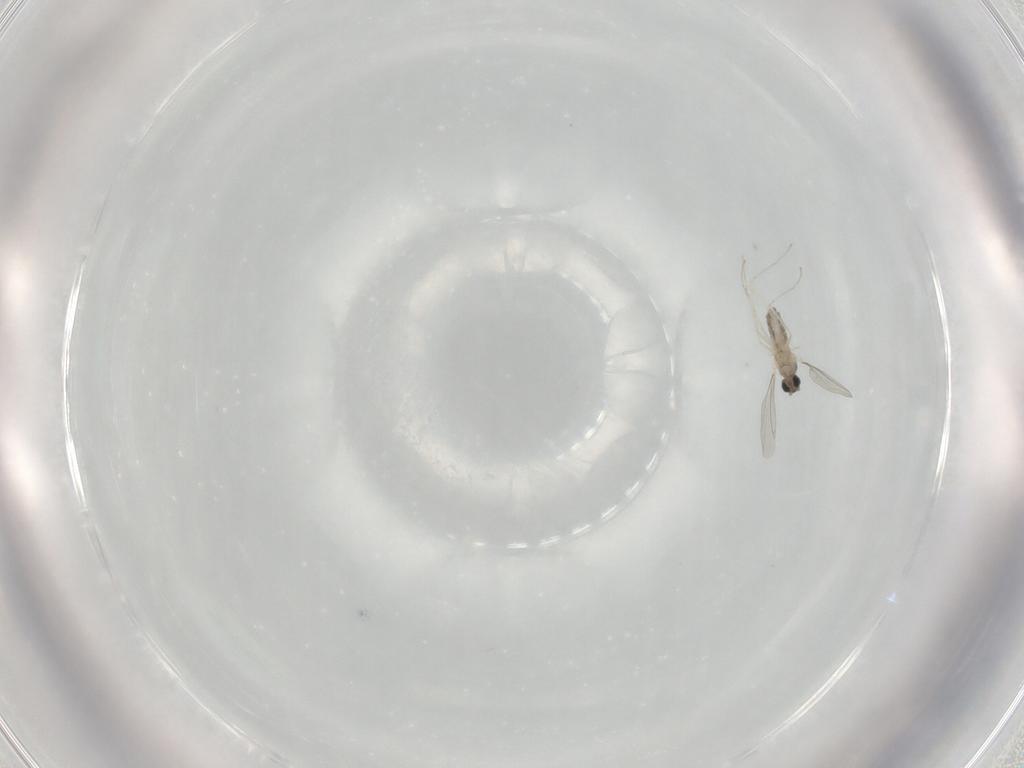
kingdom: Animalia
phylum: Arthropoda
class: Insecta
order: Diptera
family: Cecidomyiidae
